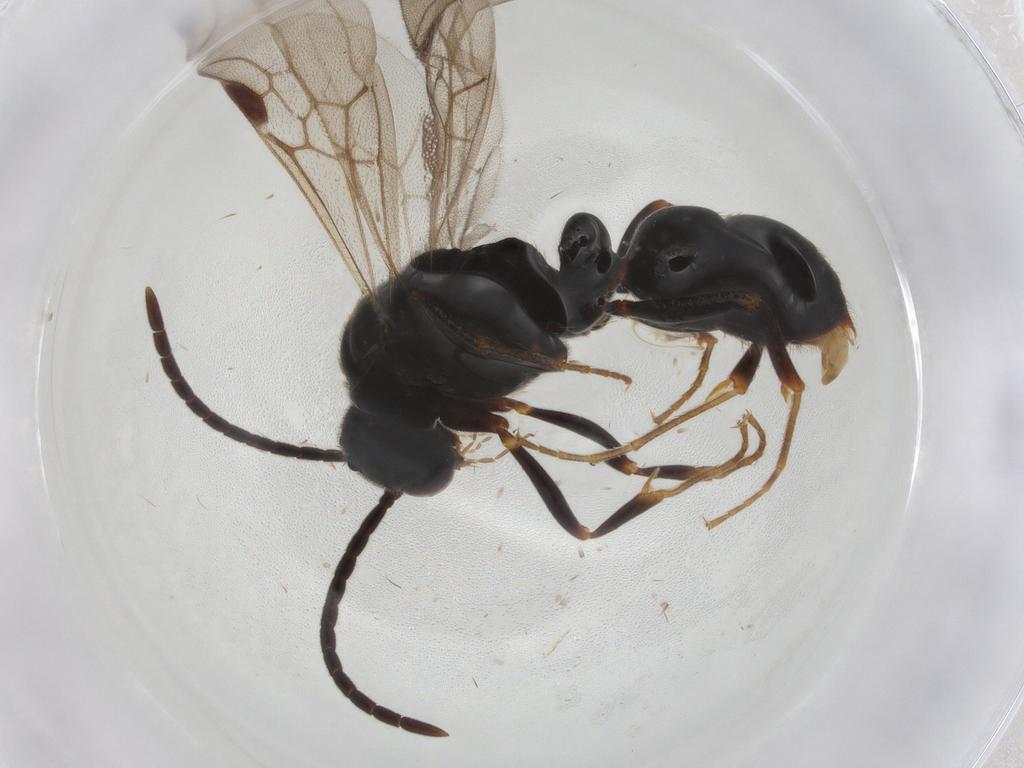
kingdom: Animalia
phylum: Arthropoda
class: Insecta
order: Hymenoptera
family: Formicidae
